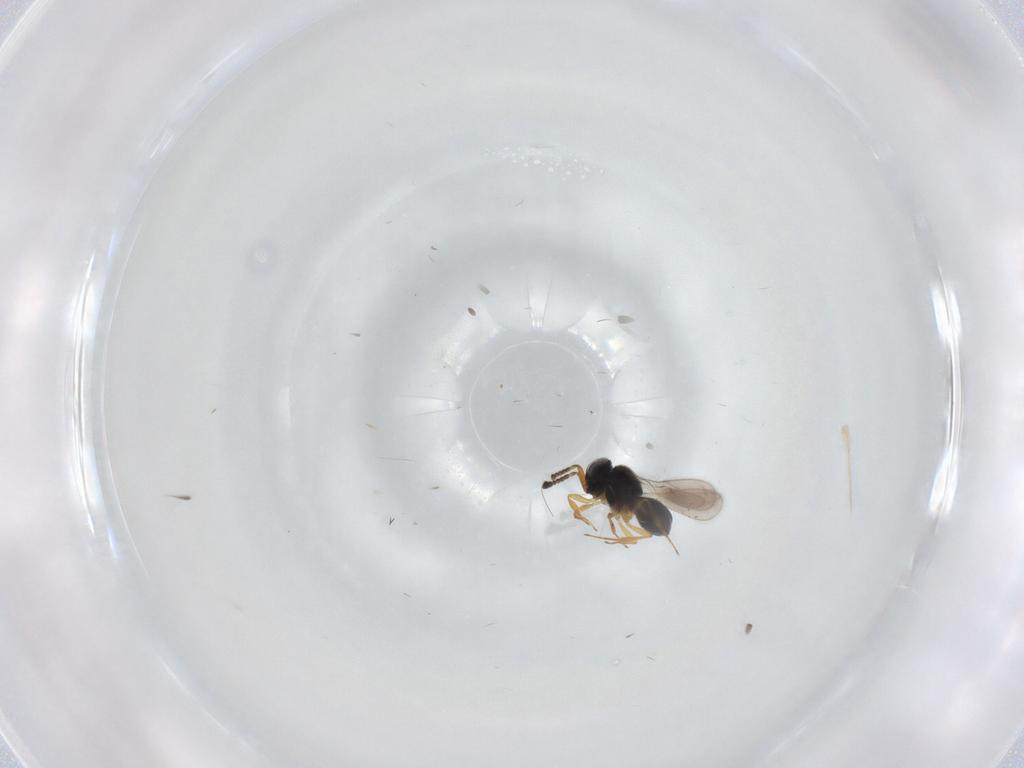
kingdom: Animalia
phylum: Arthropoda
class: Insecta
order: Hymenoptera
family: Scelionidae
